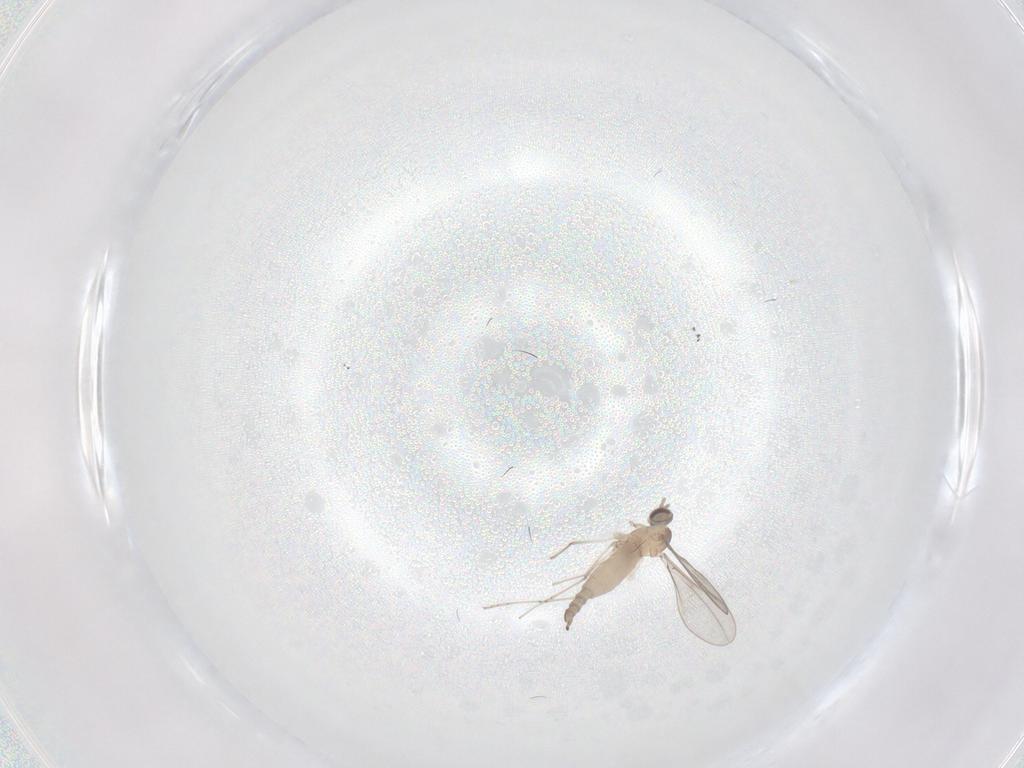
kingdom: Animalia
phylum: Arthropoda
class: Insecta
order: Diptera
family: Cecidomyiidae
